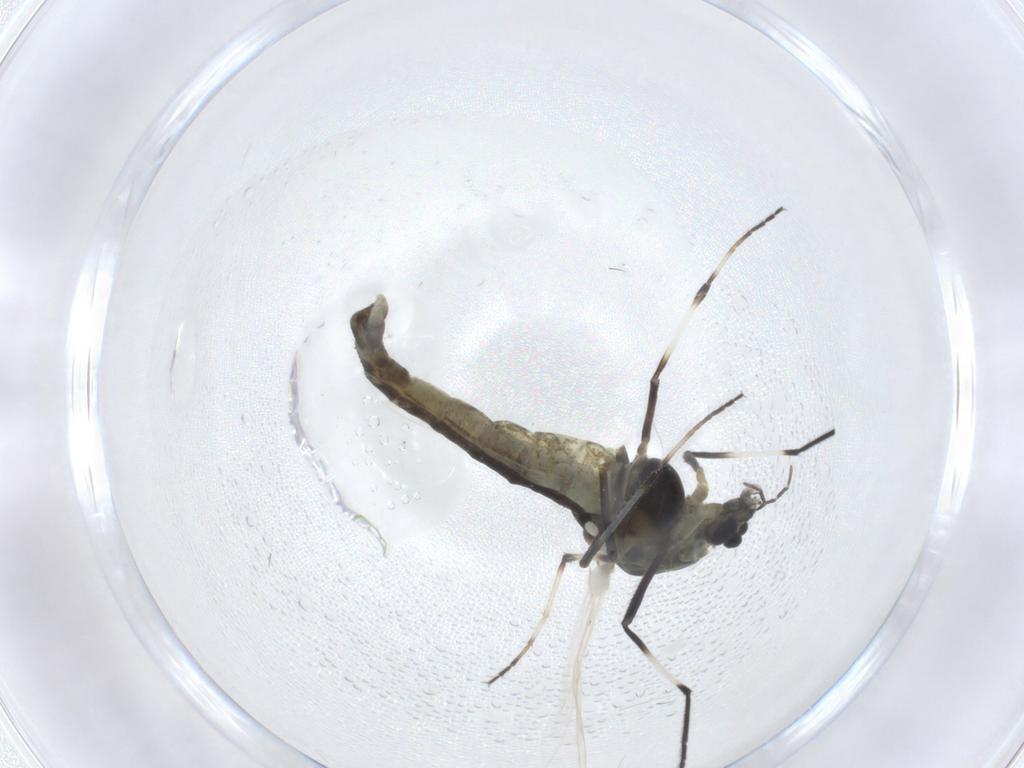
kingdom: Animalia
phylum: Arthropoda
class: Insecta
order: Diptera
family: Chironomidae
